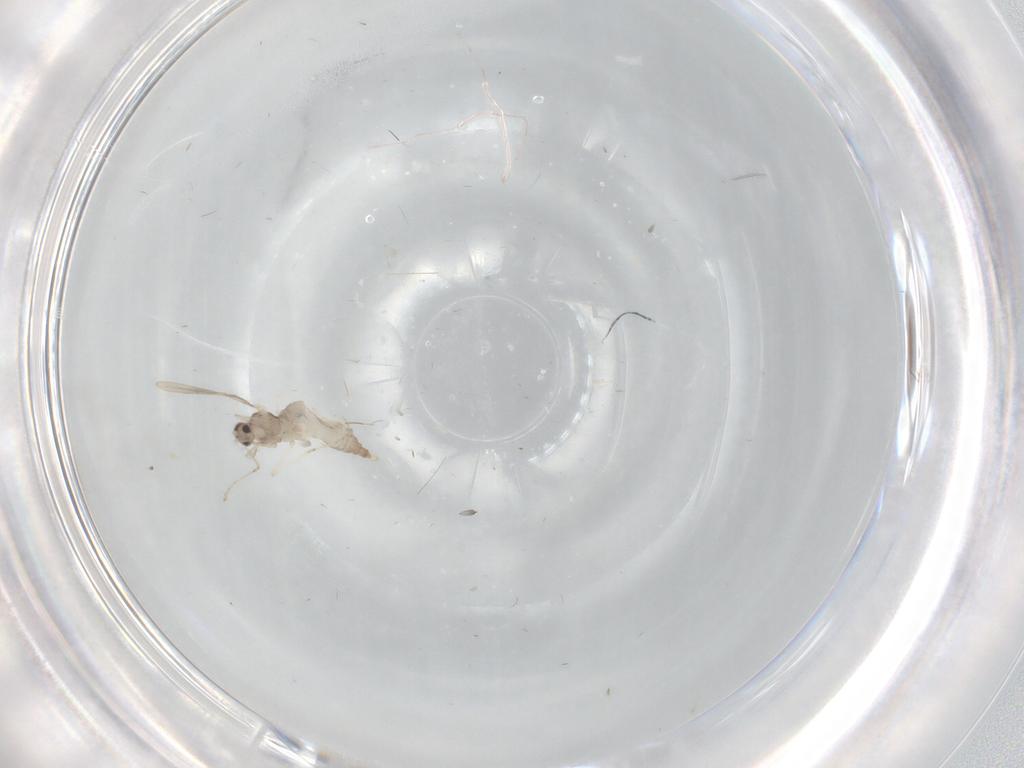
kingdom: Animalia
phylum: Arthropoda
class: Insecta
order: Diptera
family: Cecidomyiidae
